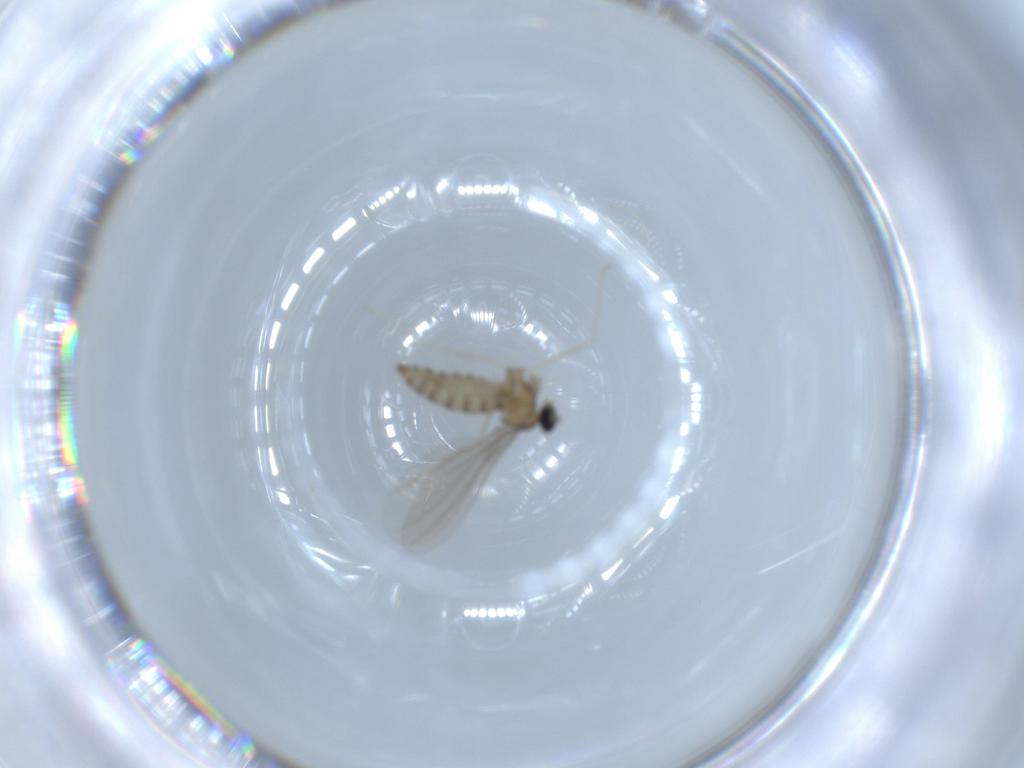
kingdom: Animalia
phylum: Arthropoda
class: Insecta
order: Diptera
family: Cecidomyiidae
